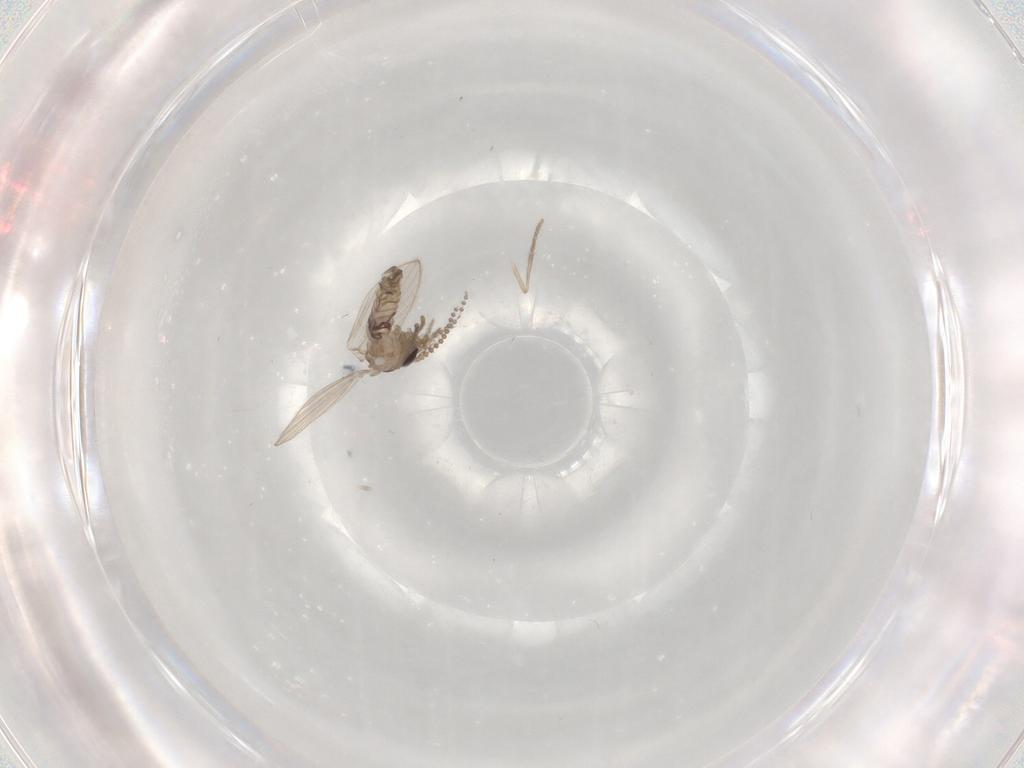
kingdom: Animalia
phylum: Arthropoda
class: Insecta
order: Diptera
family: Psychodidae
